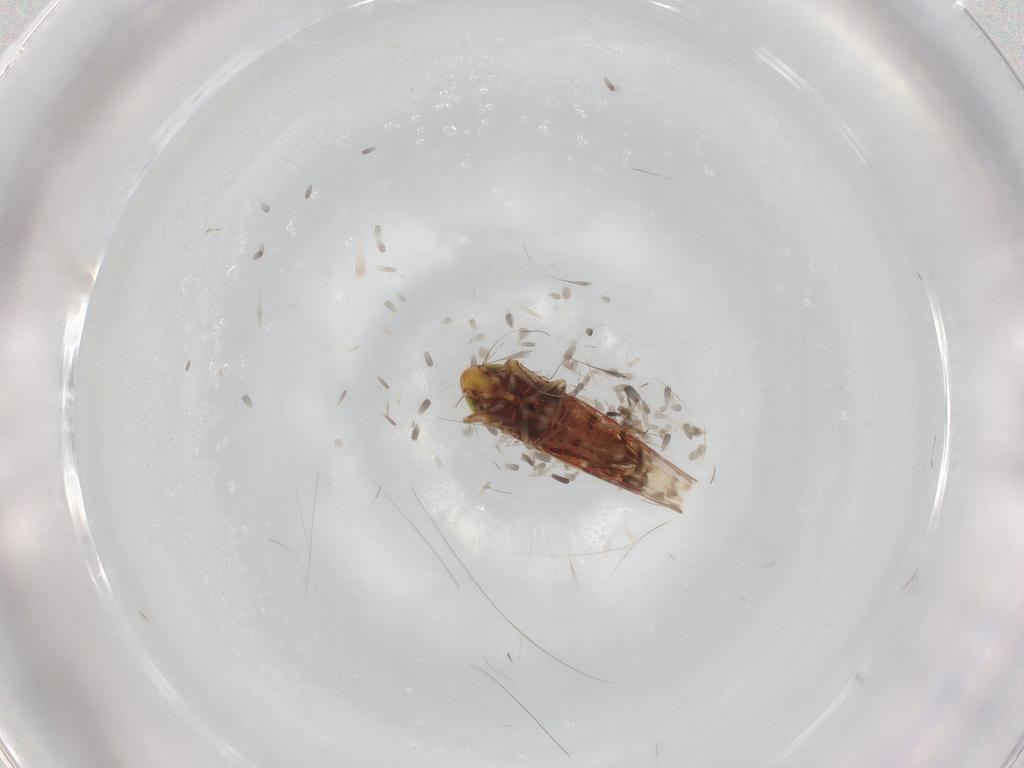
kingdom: Animalia
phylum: Arthropoda
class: Insecta
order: Hemiptera
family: Cicadellidae
